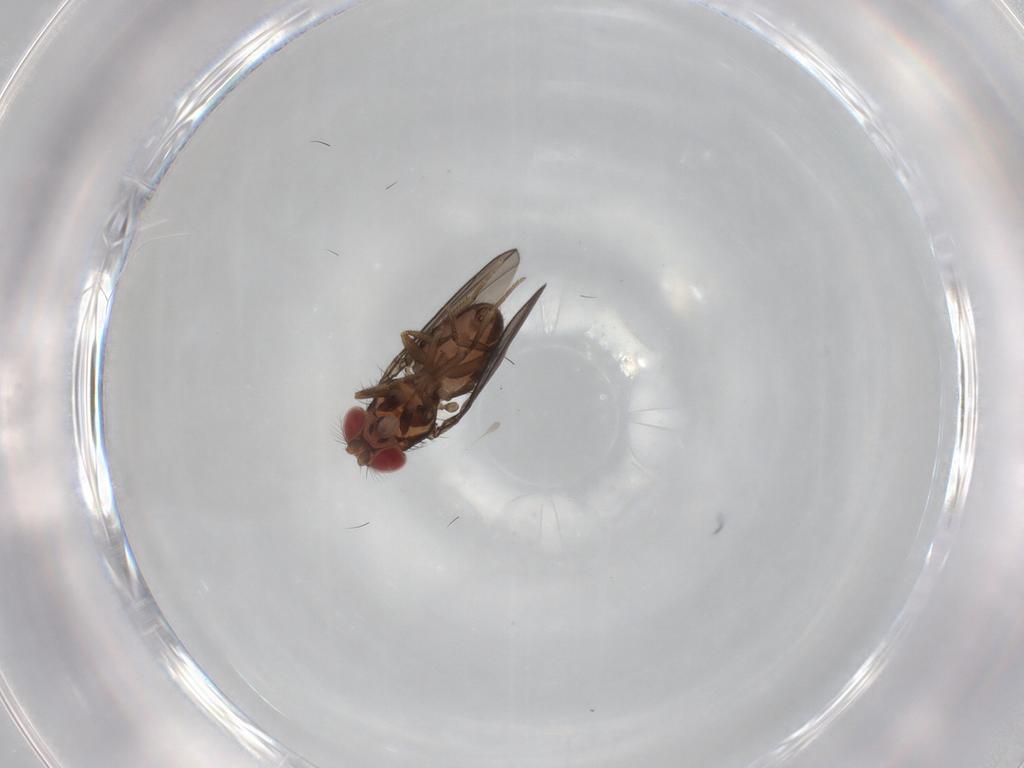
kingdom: Animalia
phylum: Arthropoda
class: Insecta
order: Diptera
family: Drosophilidae
